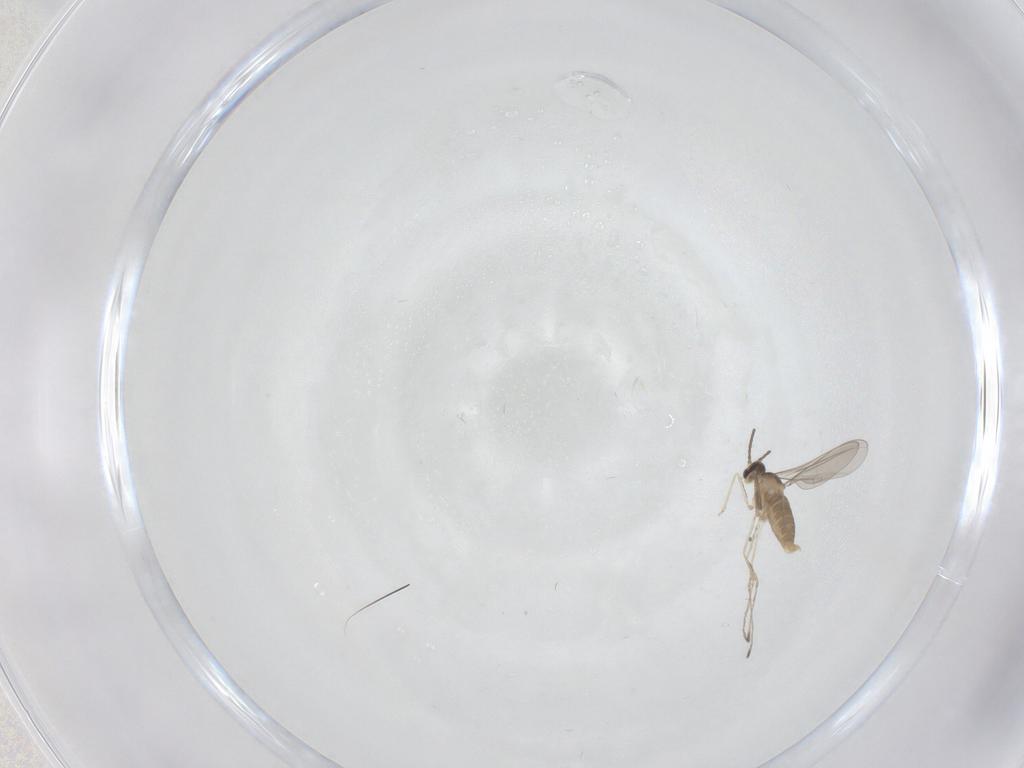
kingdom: Animalia
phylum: Arthropoda
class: Insecta
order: Diptera
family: Cecidomyiidae
